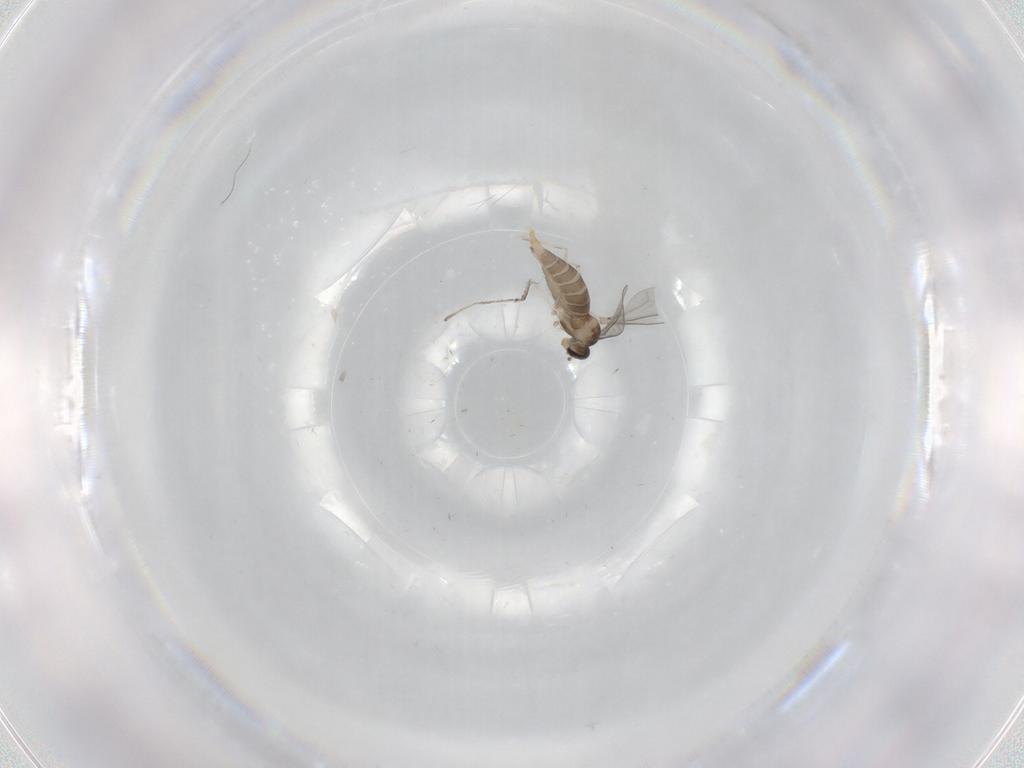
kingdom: Animalia
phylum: Arthropoda
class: Insecta
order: Diptera
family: Cecidomyiidae
